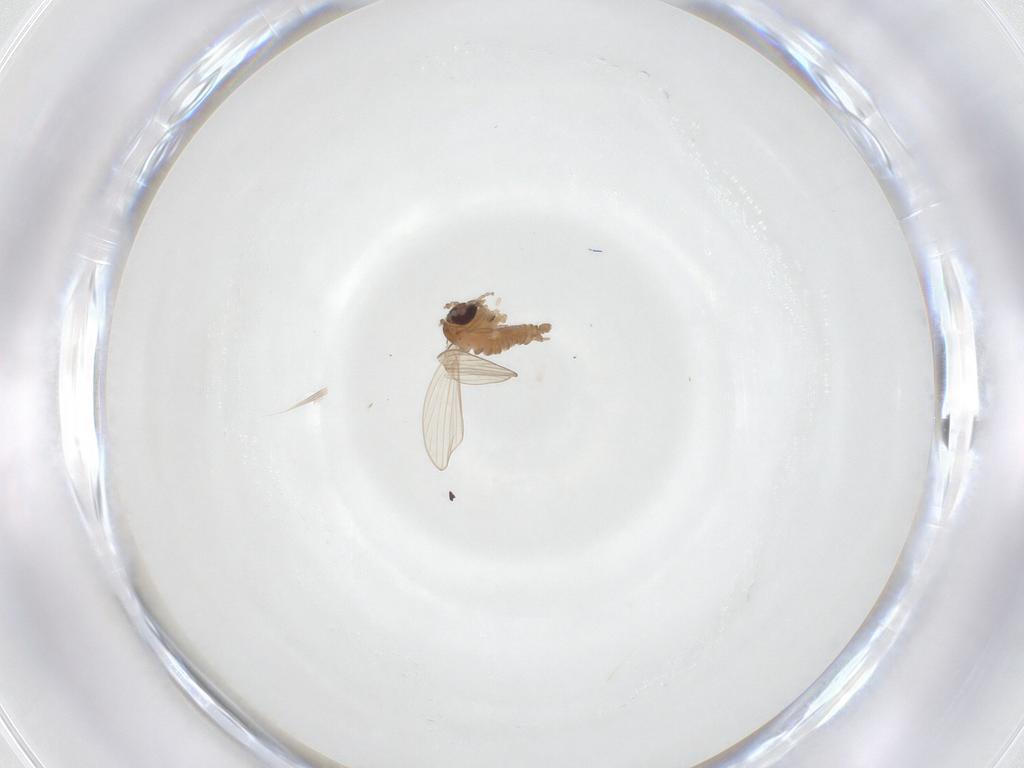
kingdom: Animalia
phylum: Arthropoda
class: Insecta
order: Diptera
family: Psychodidae
